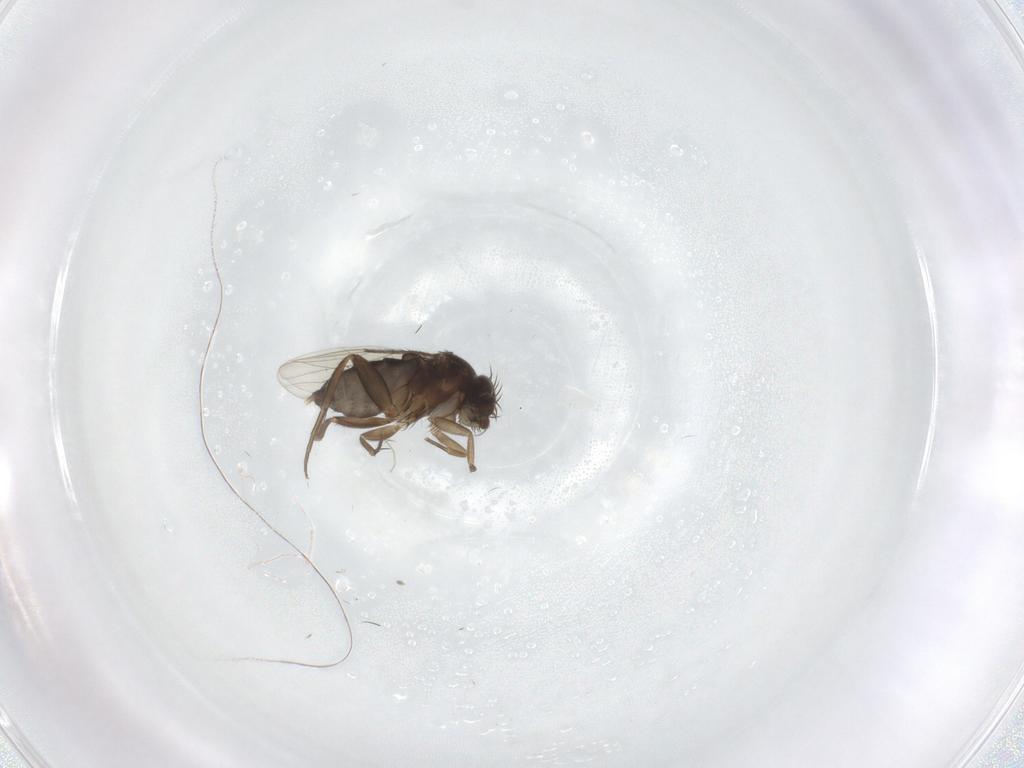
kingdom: Animalia
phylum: Arthropoda
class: Insecta
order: Diptera
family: Phoridae
